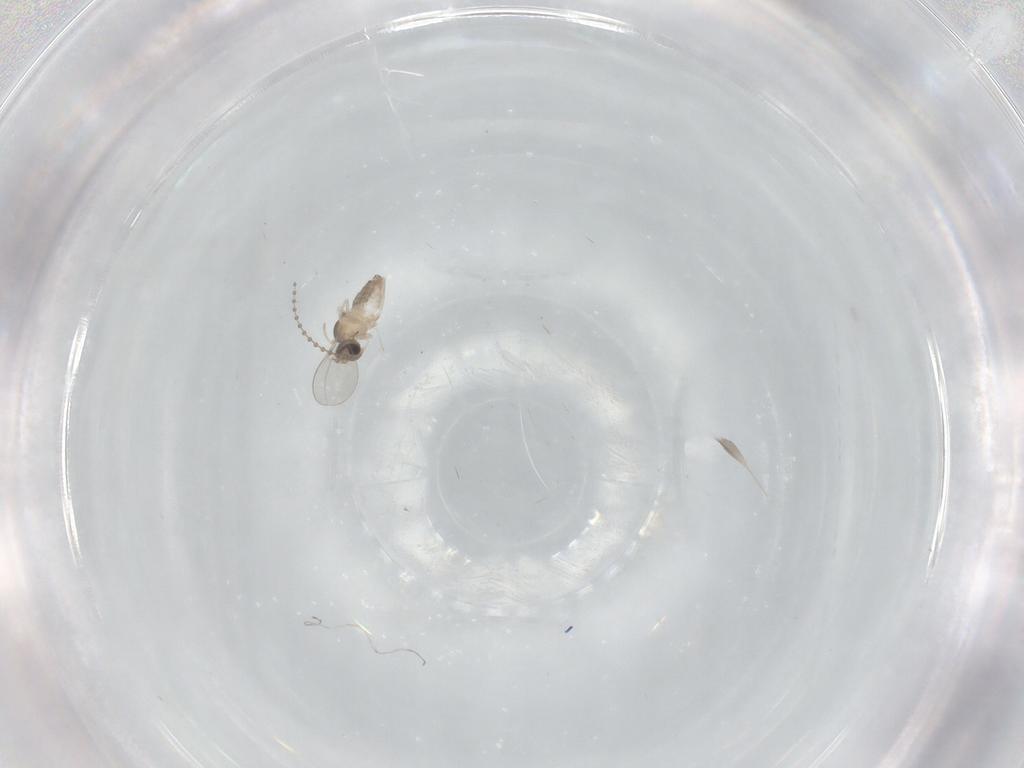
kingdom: Animalia
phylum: Arthropoda
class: Insecta
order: Diptera
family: Cecidomyiidae
